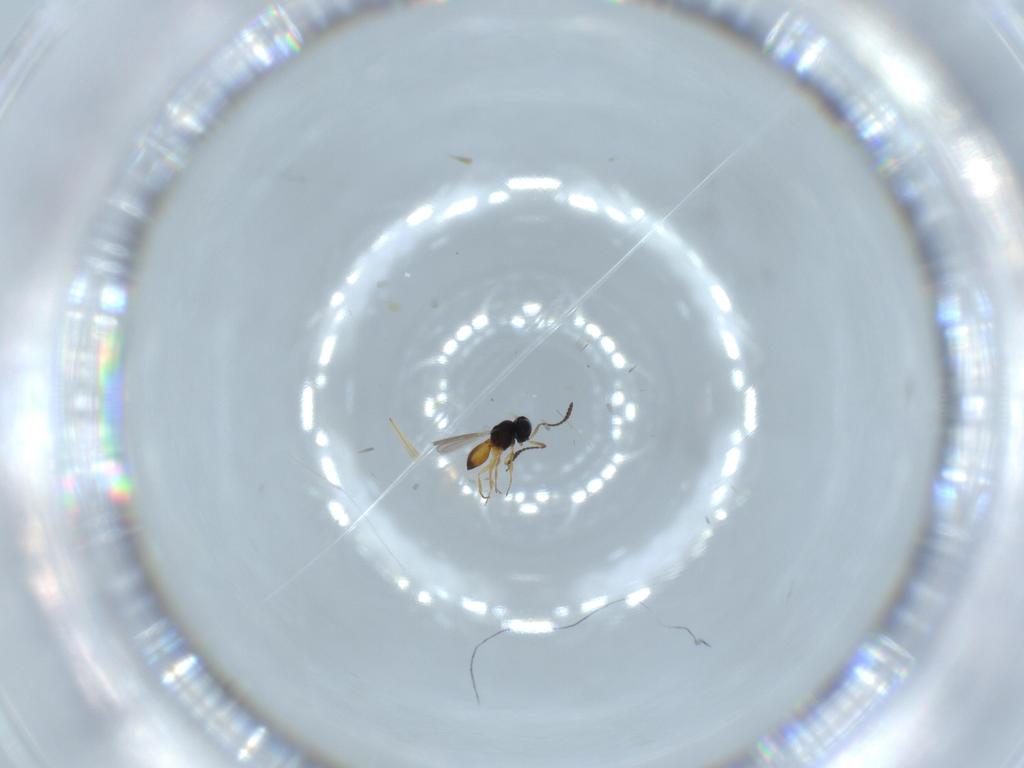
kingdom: Animalia
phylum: Arthropoda
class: Insecta
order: Hymenoptera
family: Scelionidae
